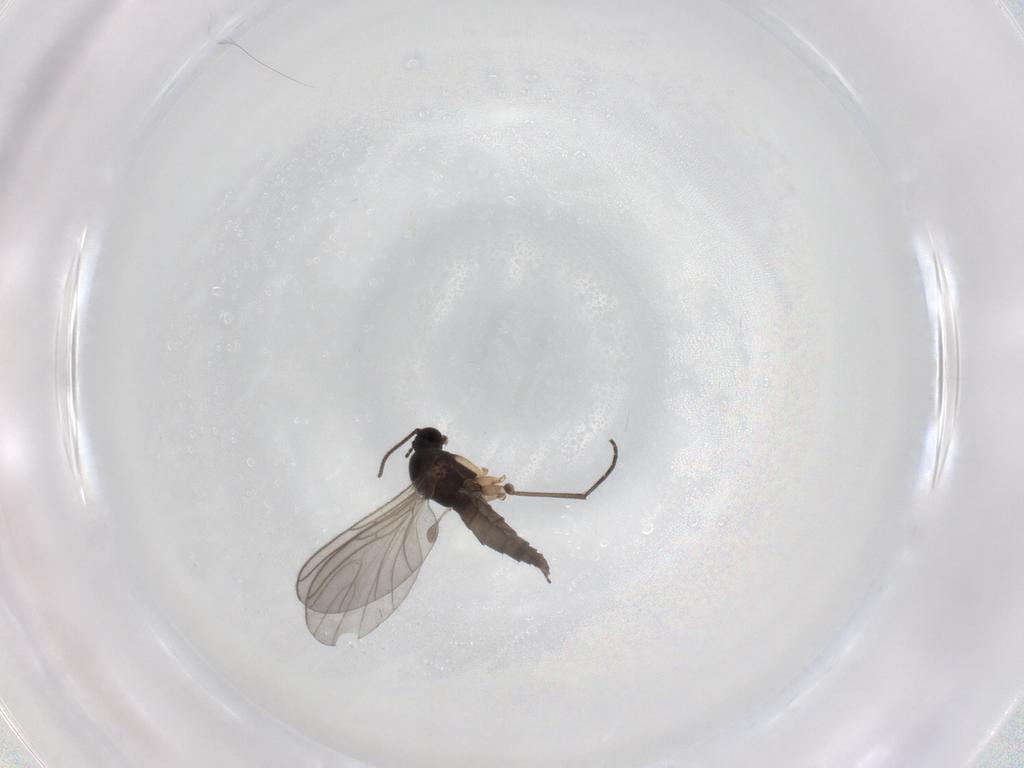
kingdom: Animalia
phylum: Arthropoda
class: Insecta
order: Diptera
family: Sciaridae
